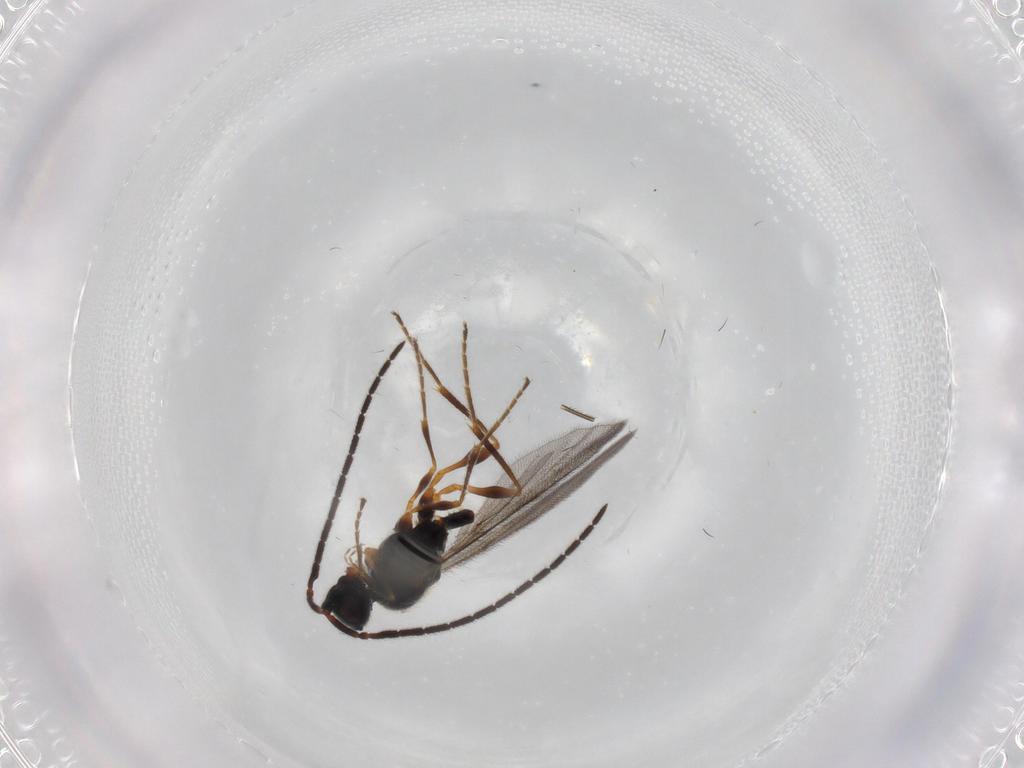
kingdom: Animalia
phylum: Arthropoda
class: Insecta
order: Hymenoptera
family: Diapriidae
